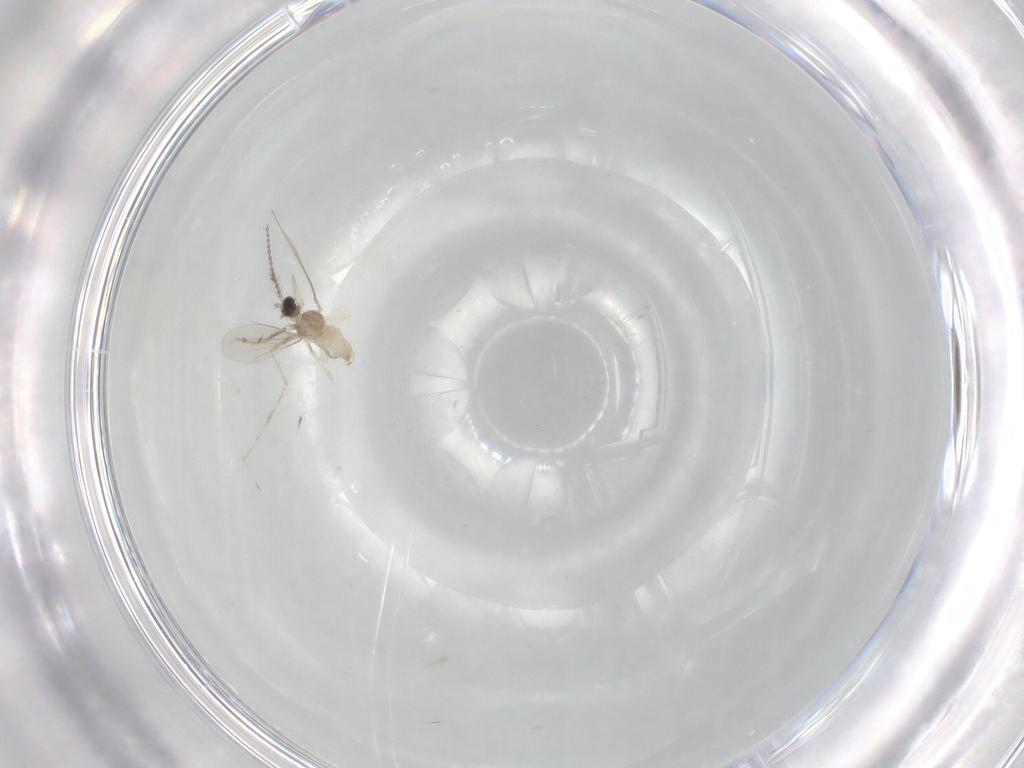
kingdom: Animalia
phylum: Arthropoda
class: Insecta
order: Diptera
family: Cecidomyiidae
